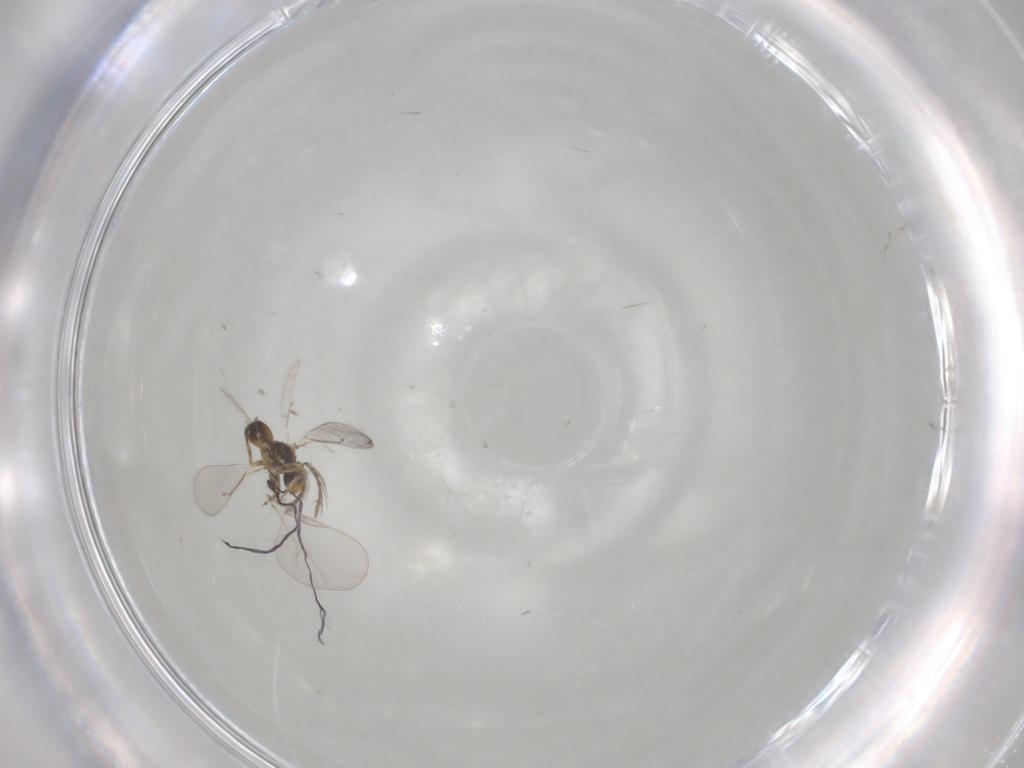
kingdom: Animalia
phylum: Arthropoda
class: Insecta
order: Hymenoptera
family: Eulophidae
